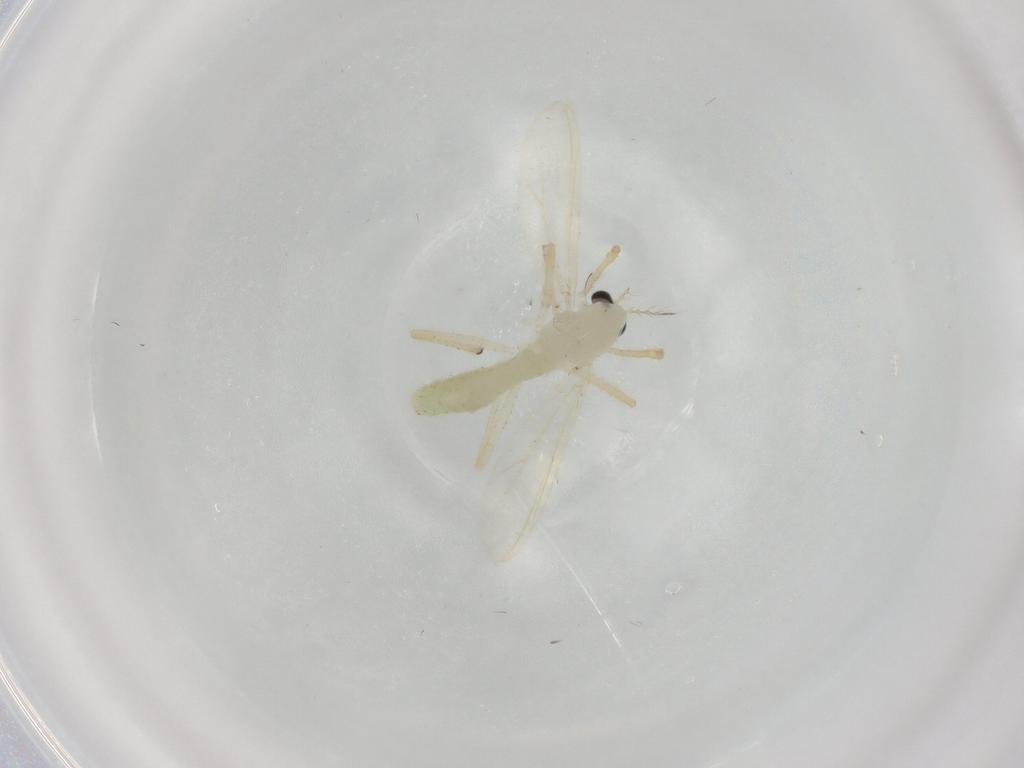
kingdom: Animalia
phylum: Arthropoda
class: Insecta
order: Diptera
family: Chironomidae
